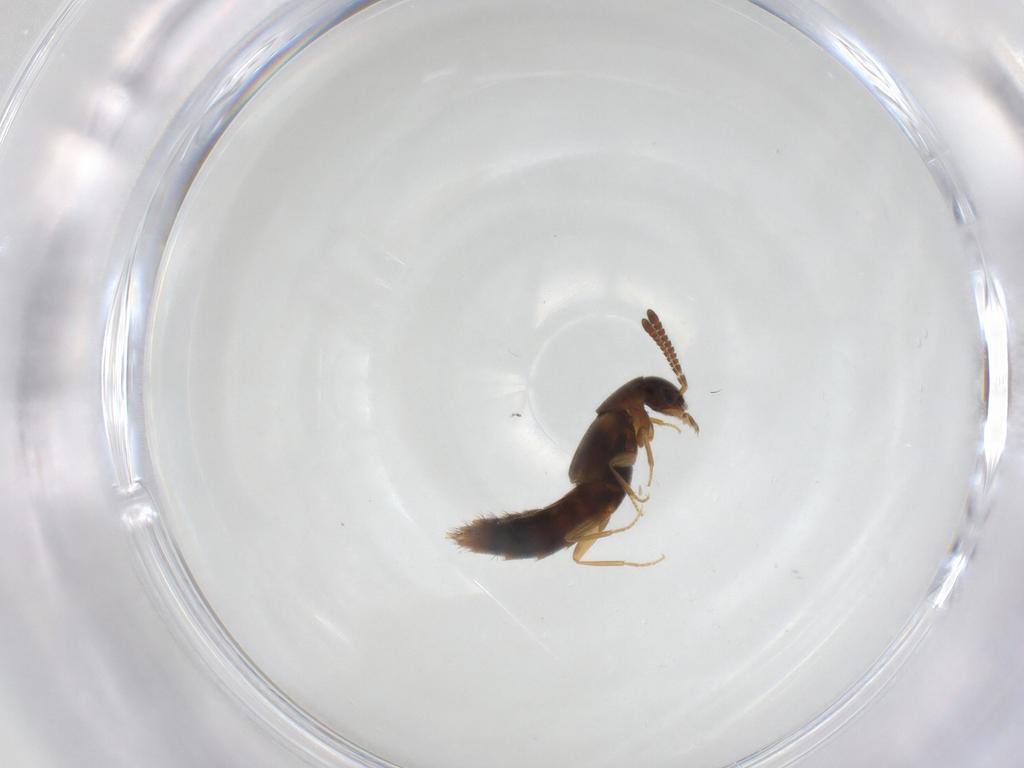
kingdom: Animalia
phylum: Arthropoda
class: Insecta
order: Coleoptera
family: Staphylinidae
